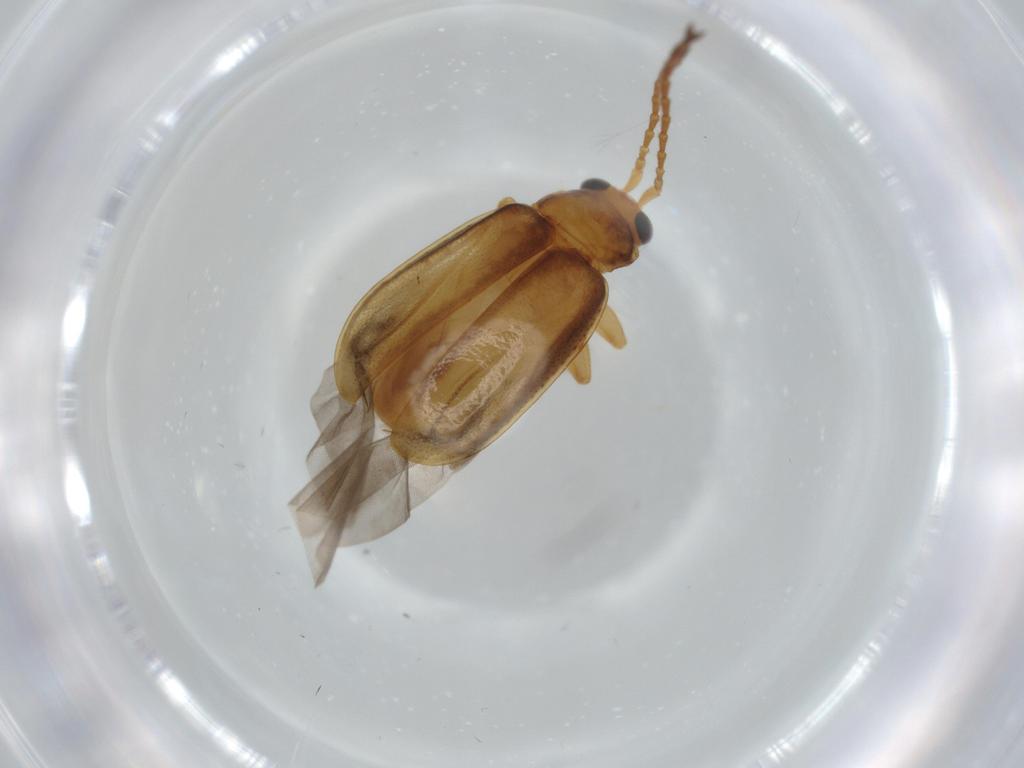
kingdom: Animalia
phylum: Arthropoda
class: Insecta
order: Coleoptera
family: Chrysomelidae
